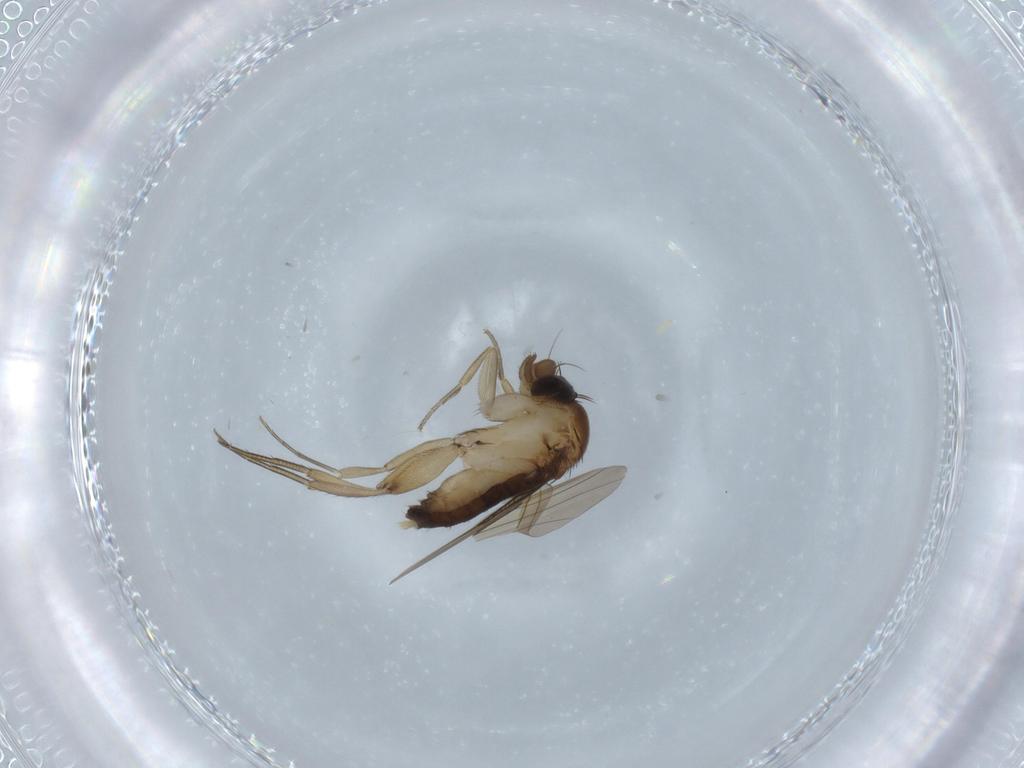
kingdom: Animalia
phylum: Arthropoda
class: Insecta
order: Diptera
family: Phoridae
